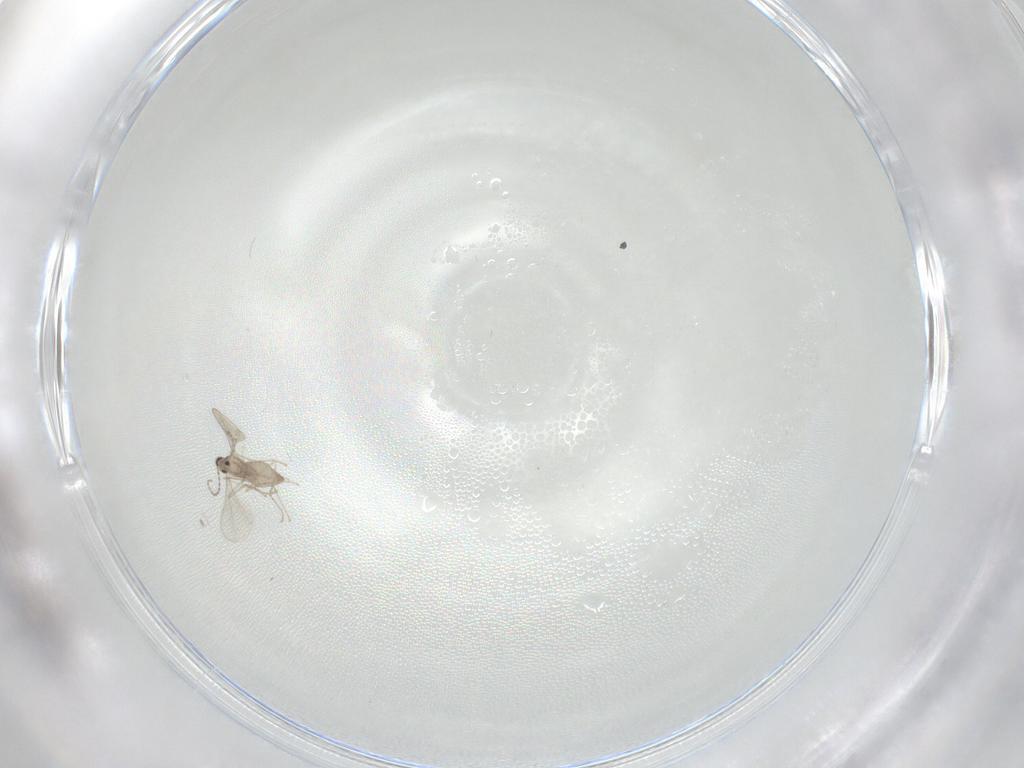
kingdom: Animalia
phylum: Arthropoda
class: Insecta
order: Diptera
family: Cecidomyiidae
